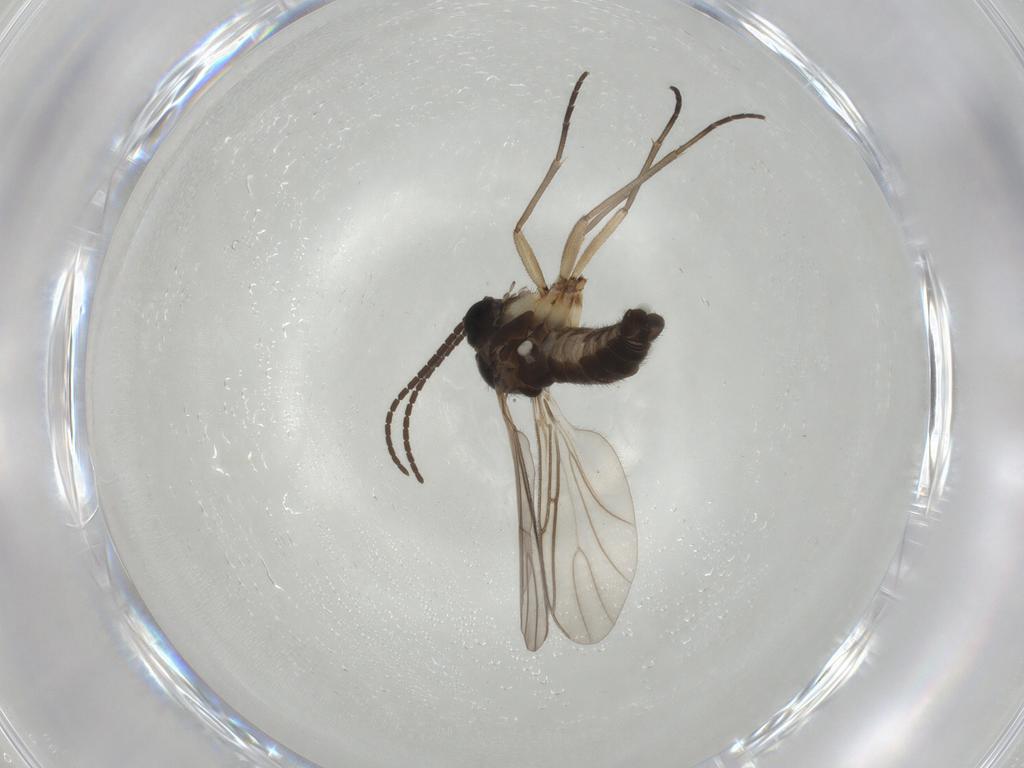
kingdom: Animalia
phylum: Arthropoda
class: Insecta
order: Diptera
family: Sciaridae
